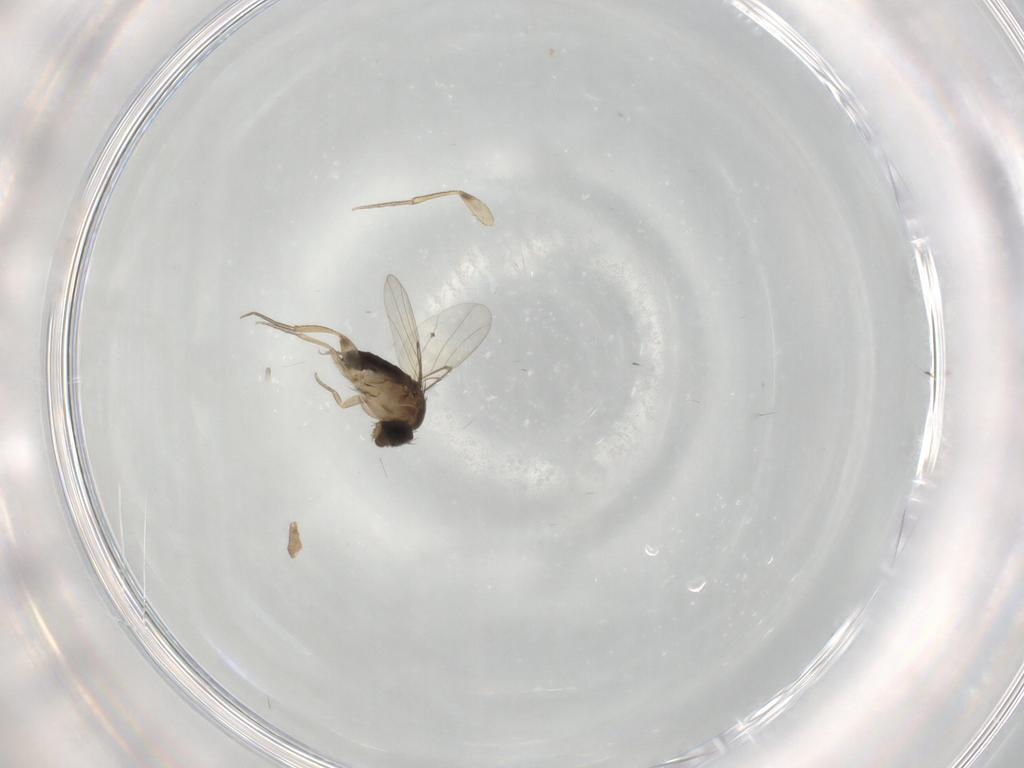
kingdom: Animalia
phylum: Arthropoda
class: Insecta
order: Diptera
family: Phoridae
